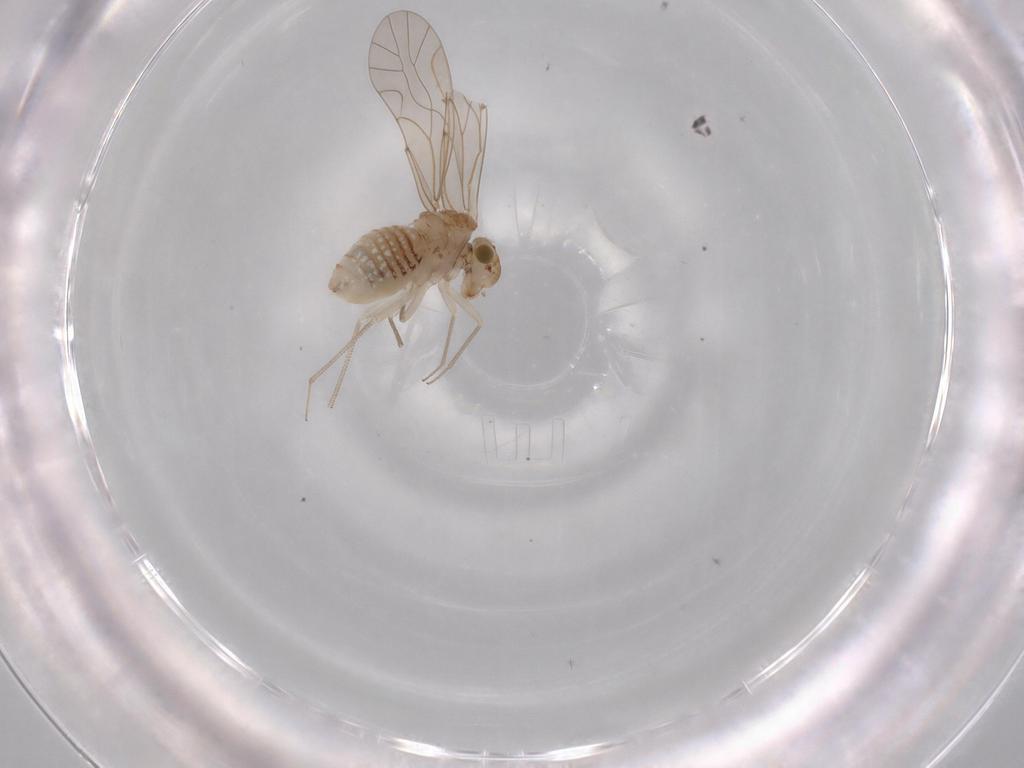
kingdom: Animalia
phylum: Arthropoda
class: Insecta
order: Psocodea
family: Lachesillidae
